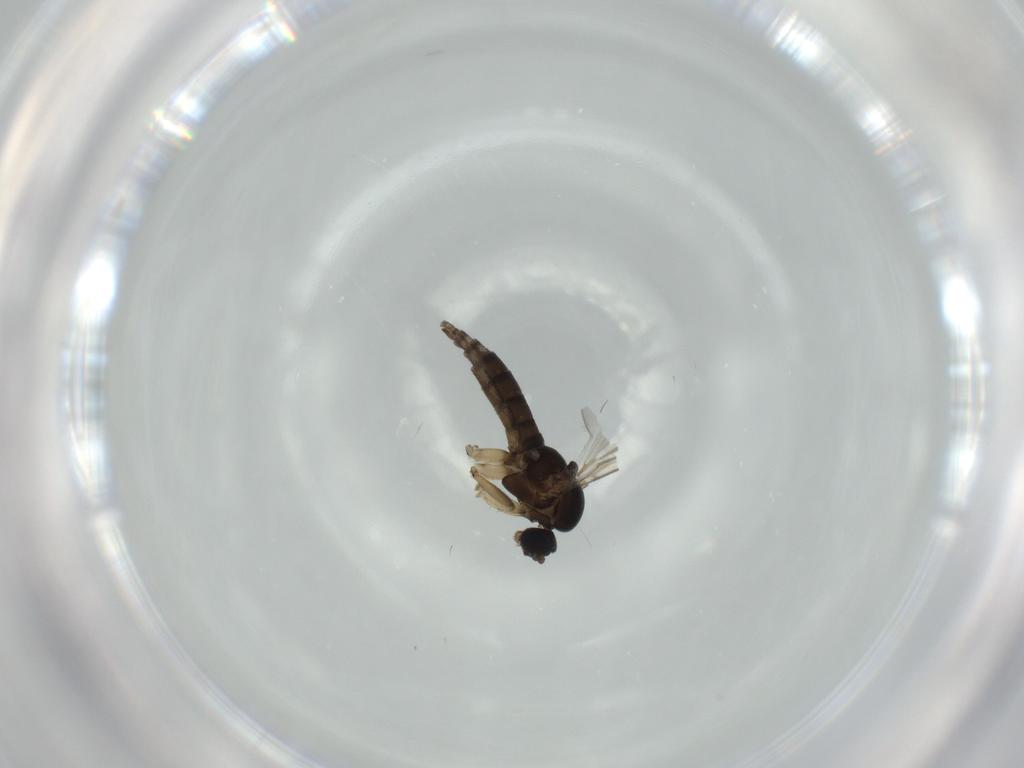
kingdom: Animalia
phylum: Arthropoda
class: Insecta
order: Diptera
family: Sciaridae
